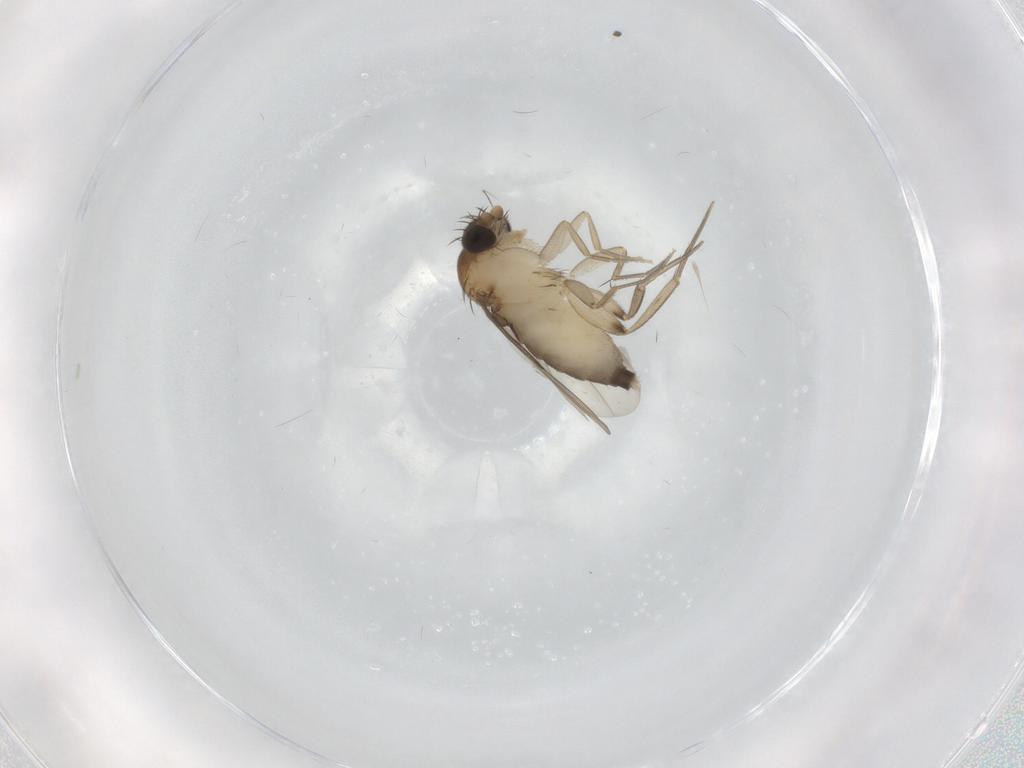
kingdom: Animalia
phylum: Arthropoda
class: Insecta
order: Diptera
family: Phoridae
